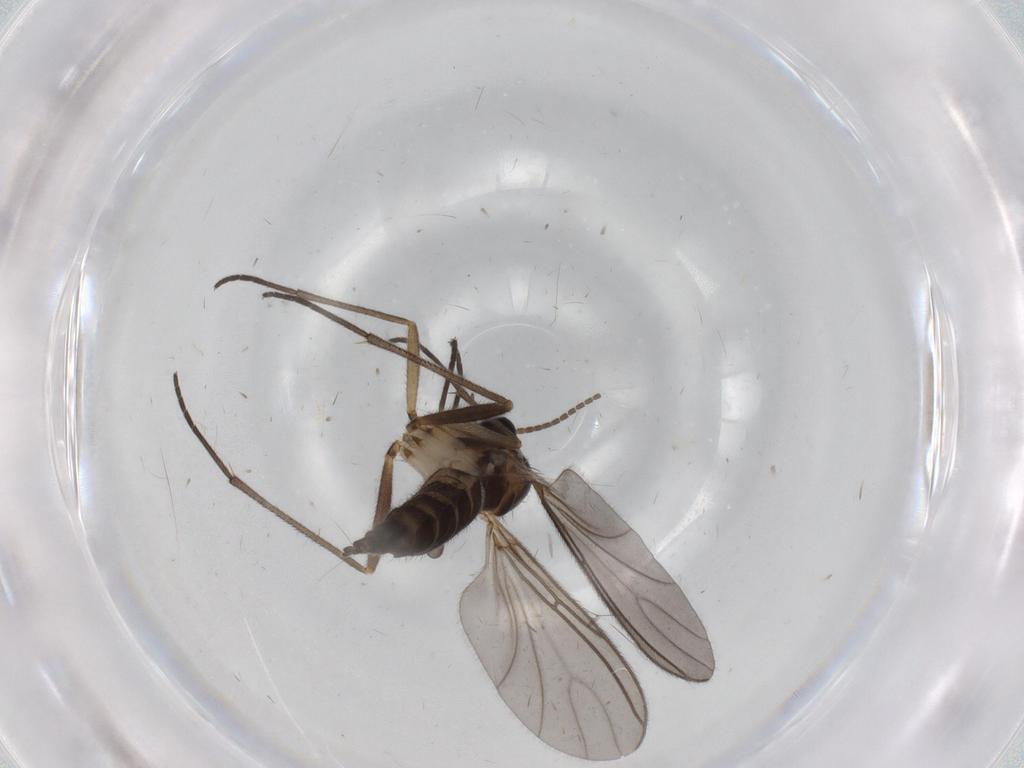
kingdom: Animalia
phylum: Arthropoda
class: Insecta
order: Diptera
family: Sciaridae
